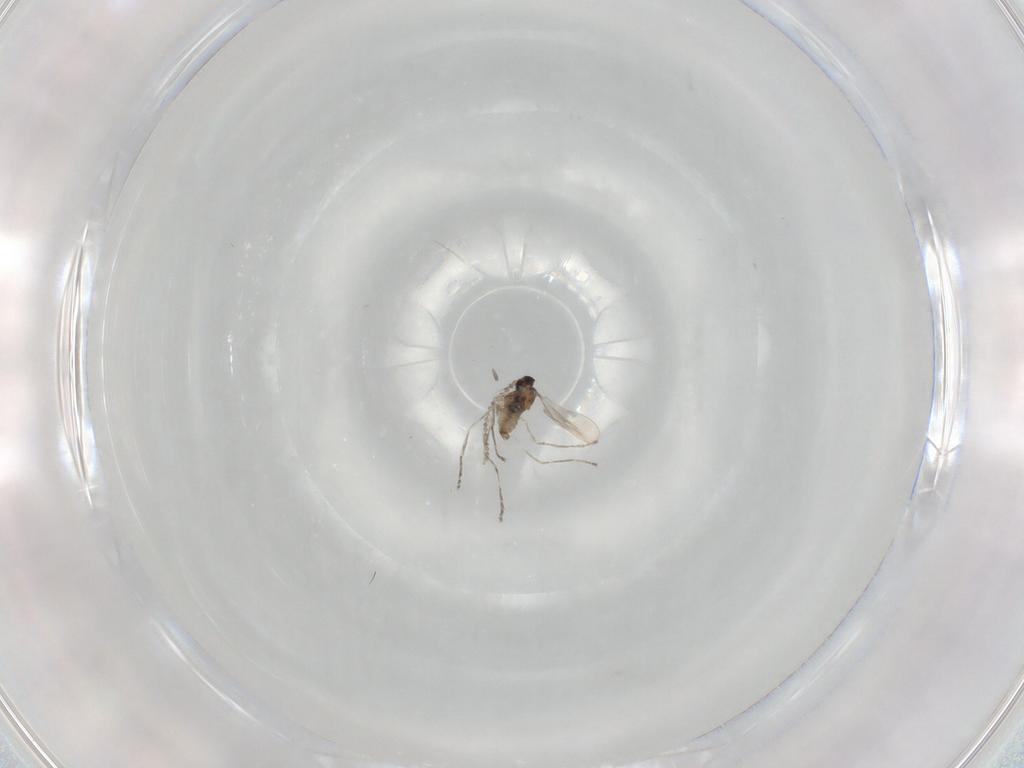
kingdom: Animalia
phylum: Arthropoda
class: Insecta
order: Diptera
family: Cecidomyiidae
